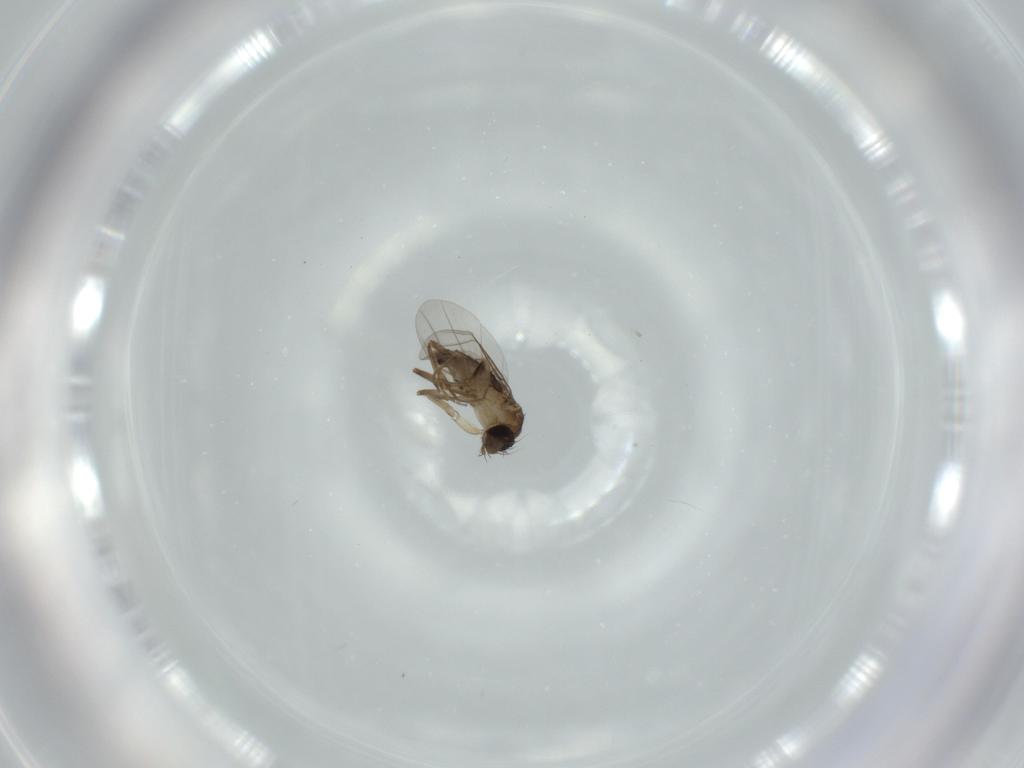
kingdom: Animalia
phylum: Arthropoda
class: Insecta
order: Diptera
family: Phoridae
